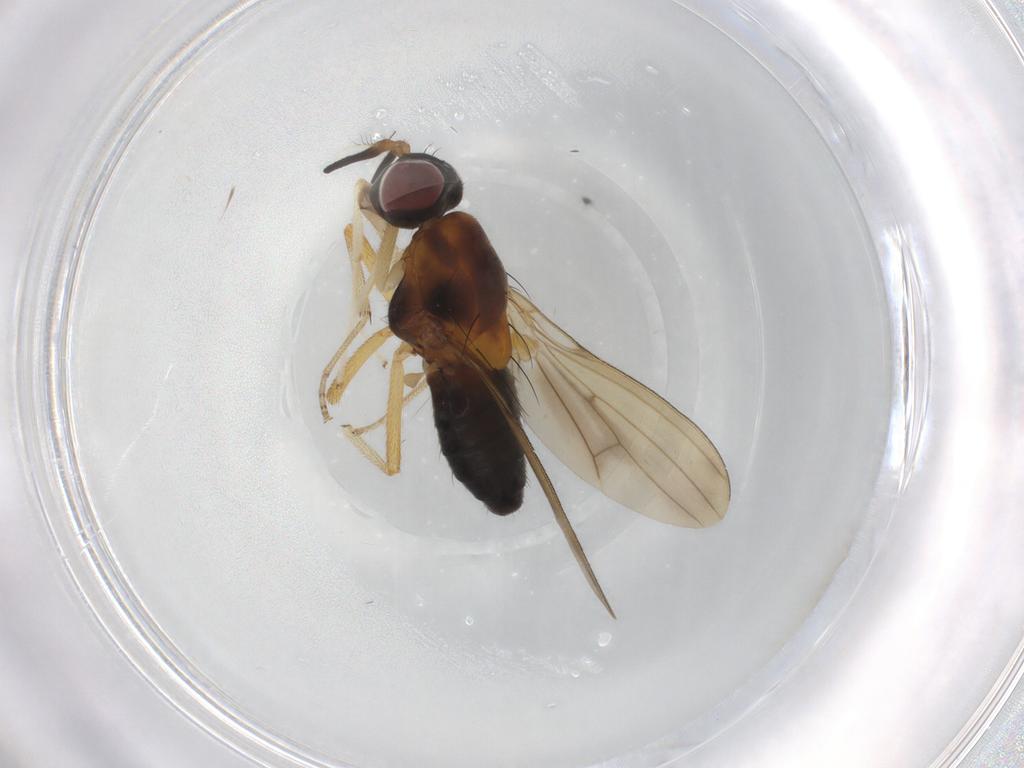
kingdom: Animalia
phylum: Arthropoda
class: Insecta
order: Diptera
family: Lauxaniidae
